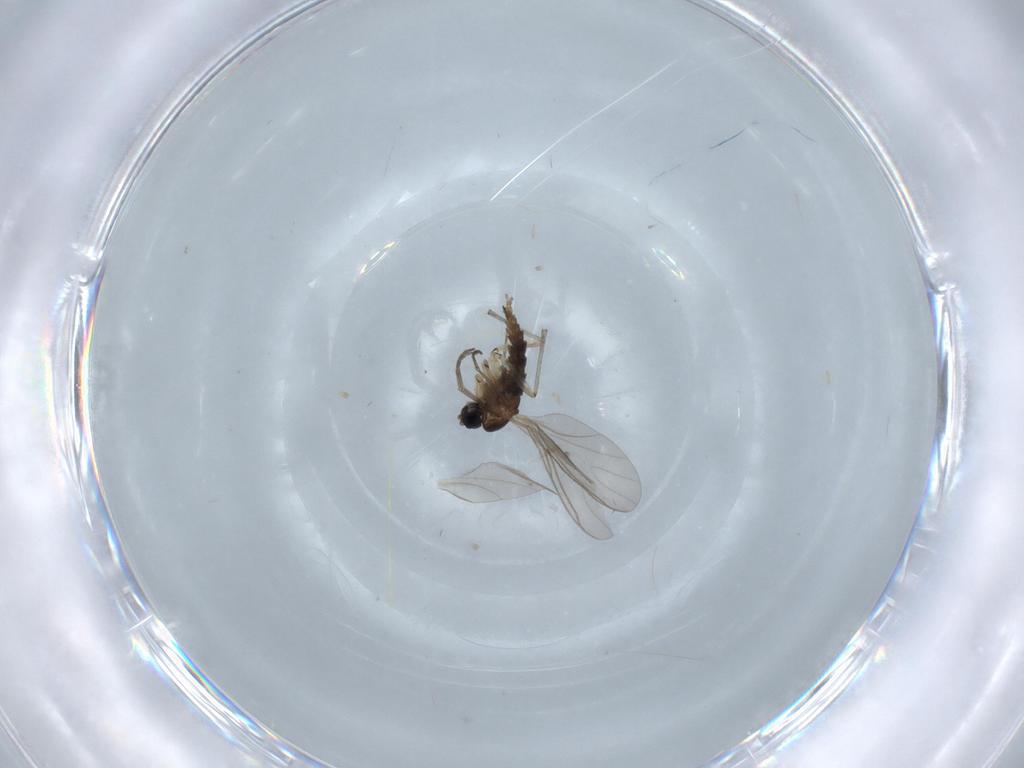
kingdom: Animalia
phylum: Arthropoda
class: Insecta
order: Diptera
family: Sciaridae
